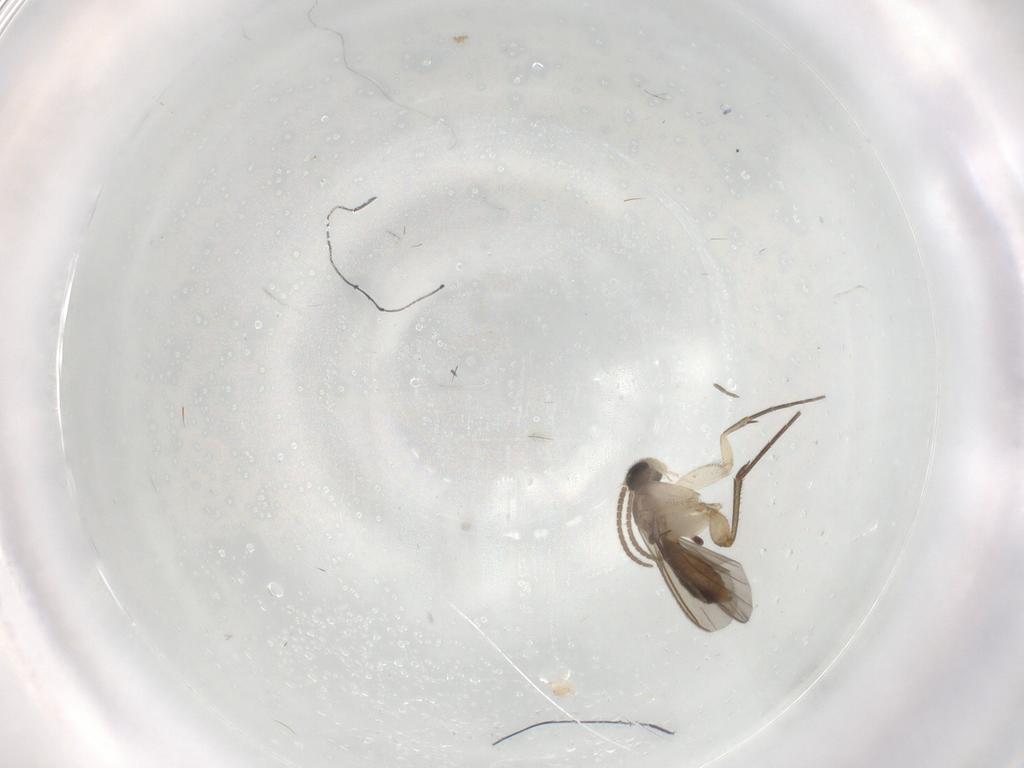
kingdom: Animalia
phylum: Arthropoda
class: Insecta
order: Diptera
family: Mycetophilidae
